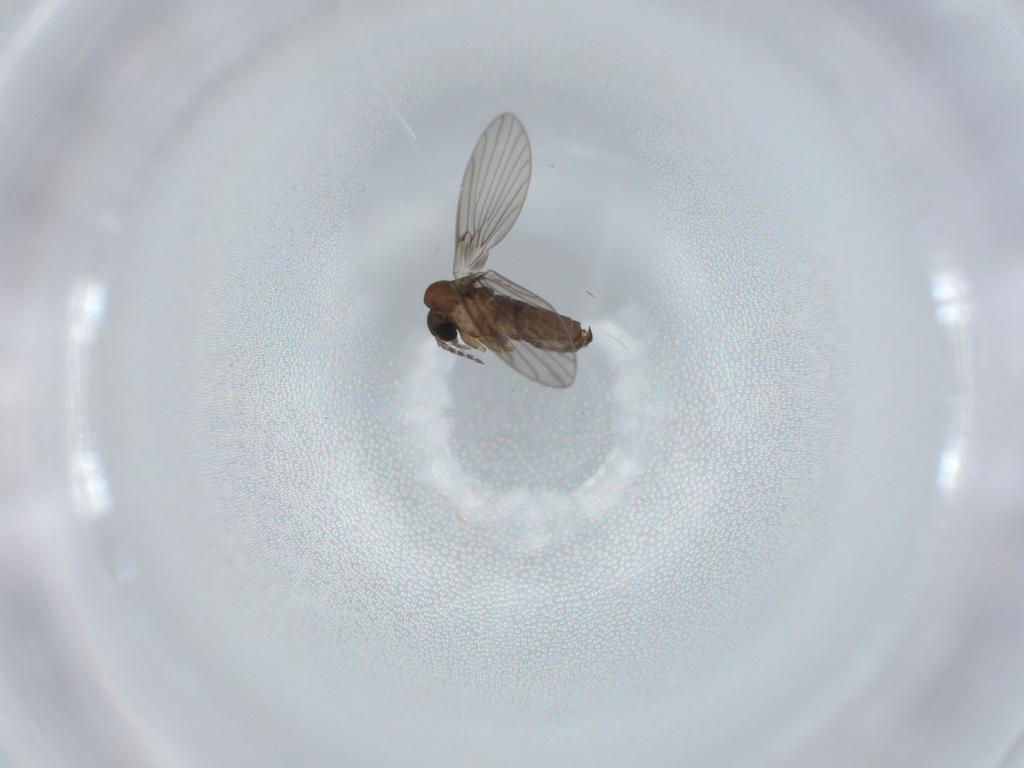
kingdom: Animalia
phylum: Arthropoda
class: Insecta
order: Diptera
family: Psychodidae
